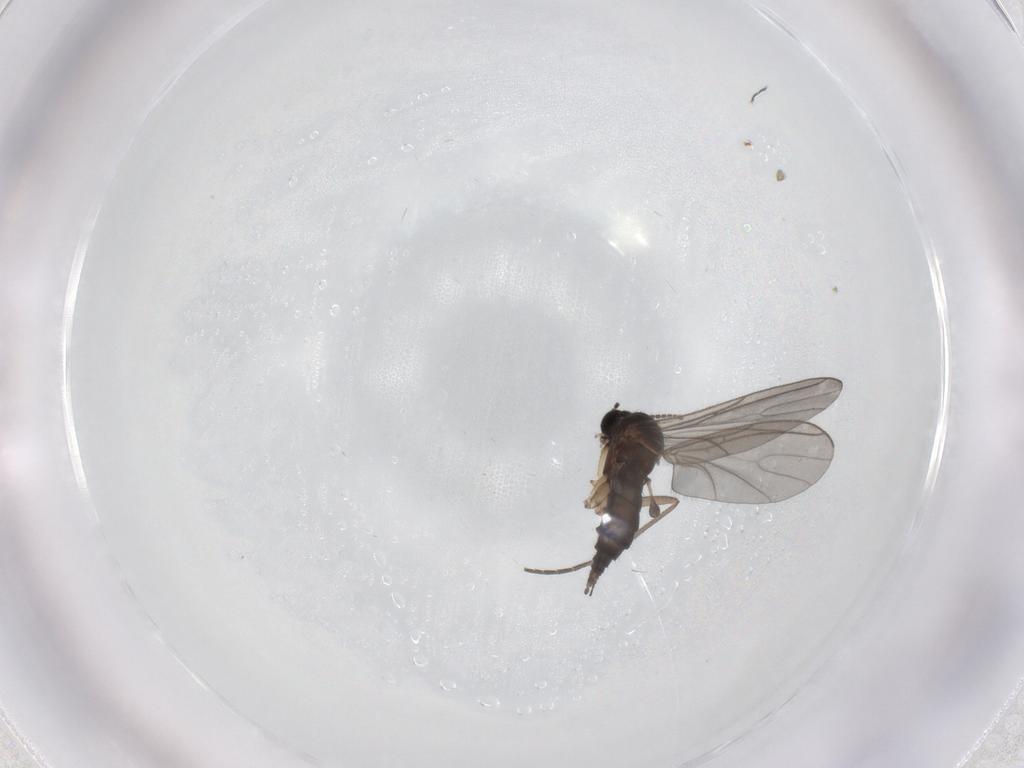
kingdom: Animalia
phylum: Arthropoda
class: Insecta
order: Diptera
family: Sciaridae
